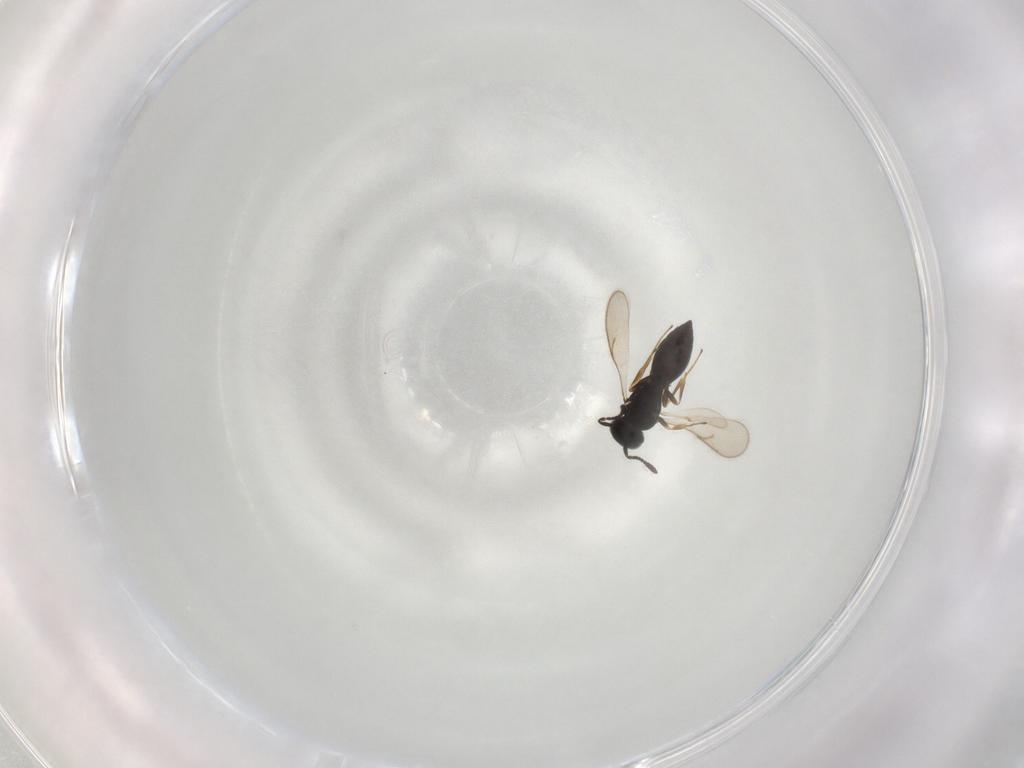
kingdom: Animalia
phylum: Arthropoda
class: Insecta
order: Hymenoptera
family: Scelionidae
